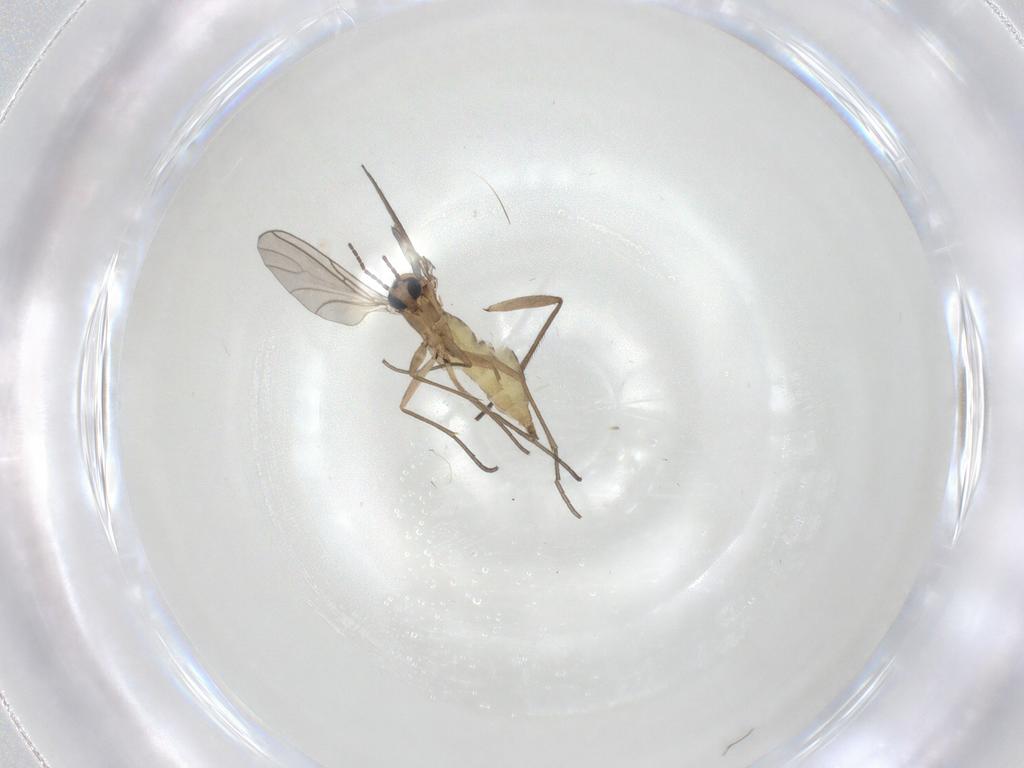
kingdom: Animalia
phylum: Arthropoda
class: Insecta
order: Diptera
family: Sciaridae
